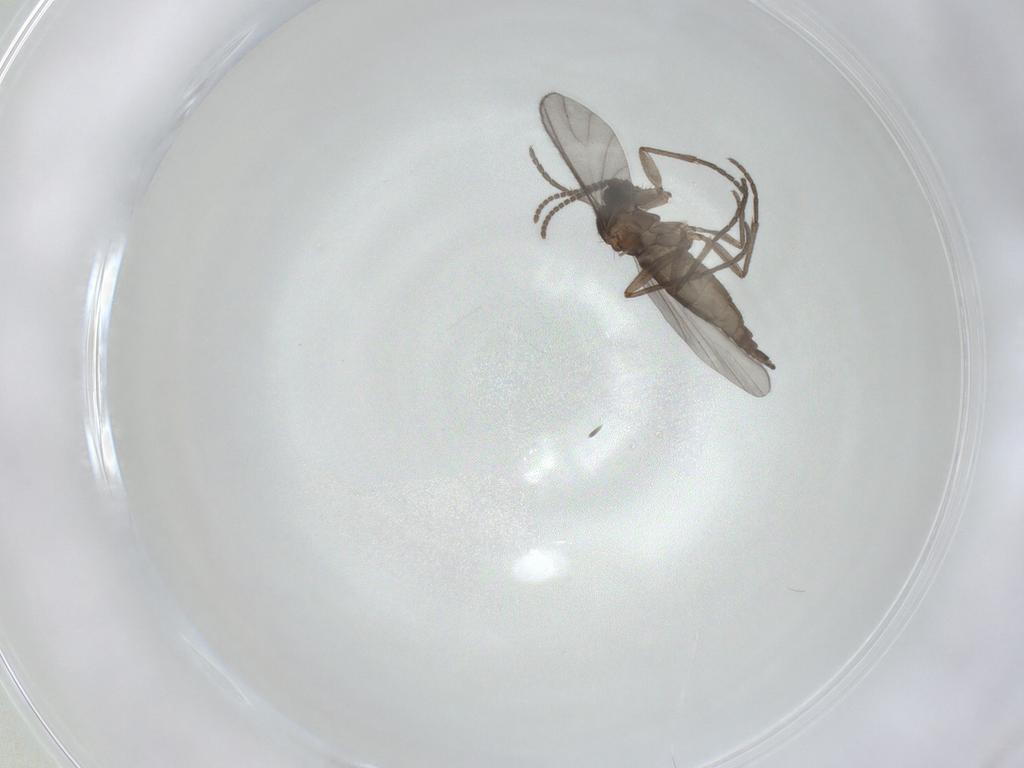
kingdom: Animalia
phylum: Arthropoda
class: Insecta
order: Diptera
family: Sciaridae
